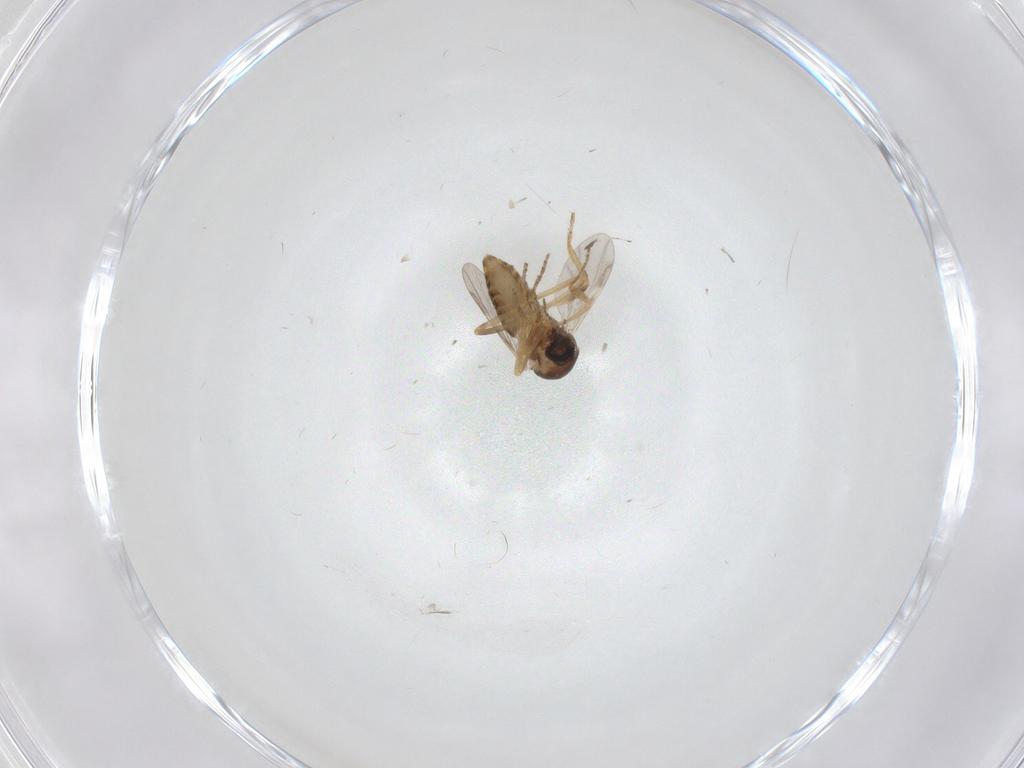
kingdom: Animalia
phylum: Arthropoda
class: Insecta
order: Diptera
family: Psychodidae
